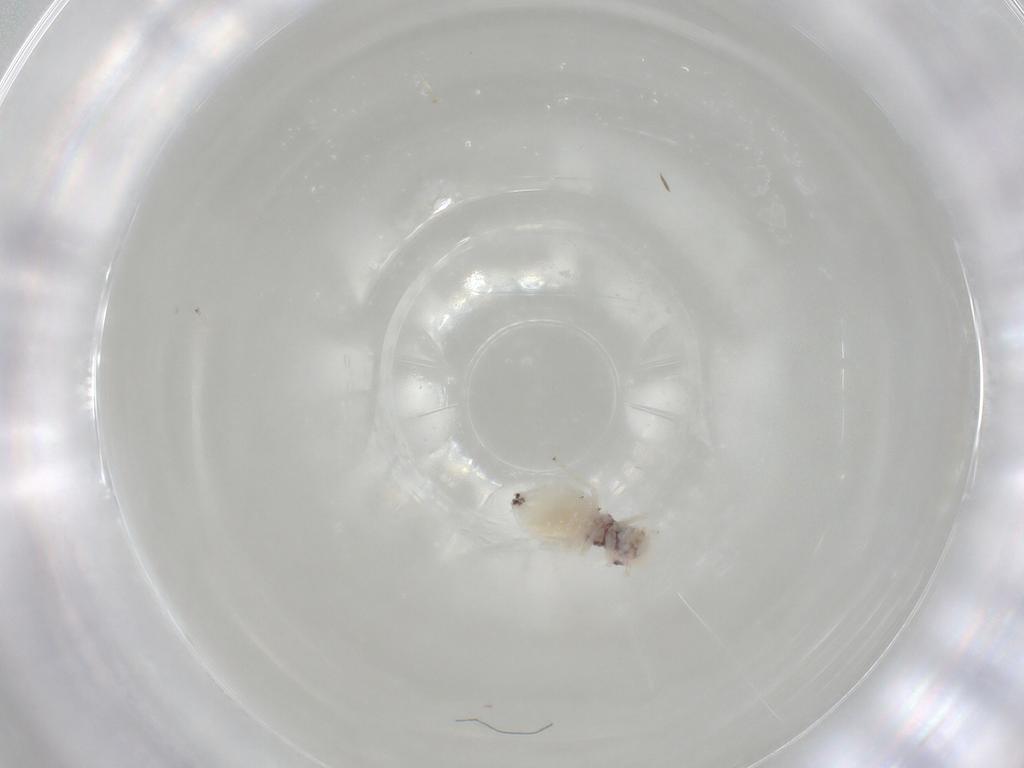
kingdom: Animalia
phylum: Arthropoda
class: Insecta
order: Psocodea
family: Amphipsocidae
